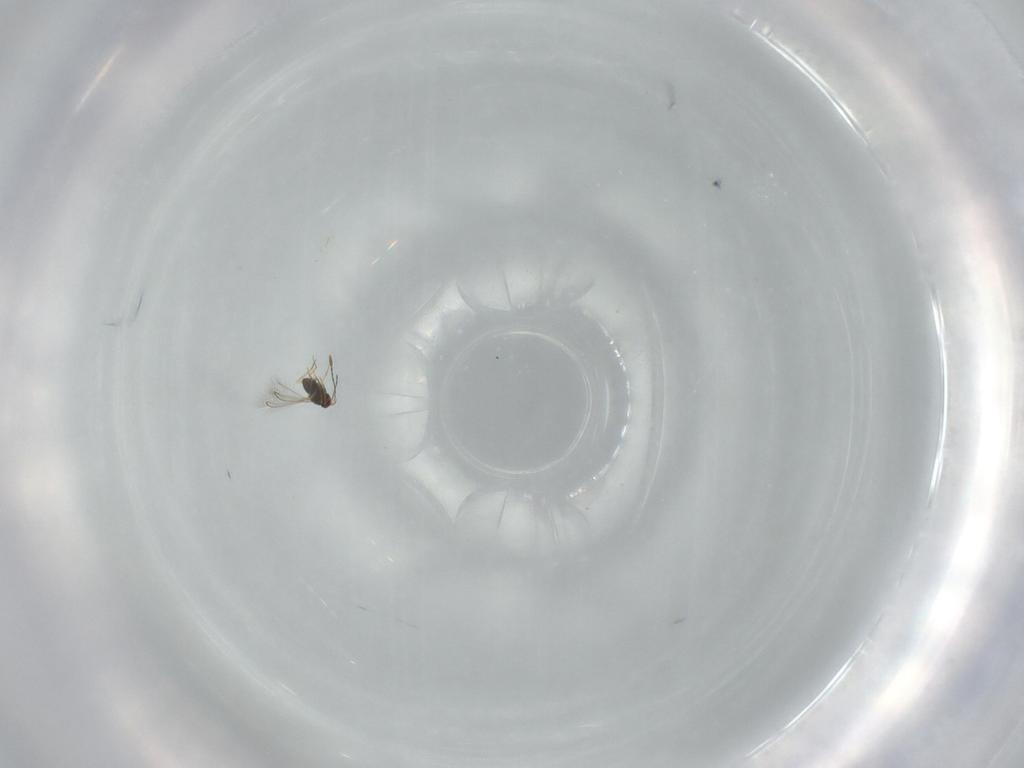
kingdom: Animalia
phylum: Arthropoda
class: Insecta
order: Hymenoptera
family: Mymaridae
